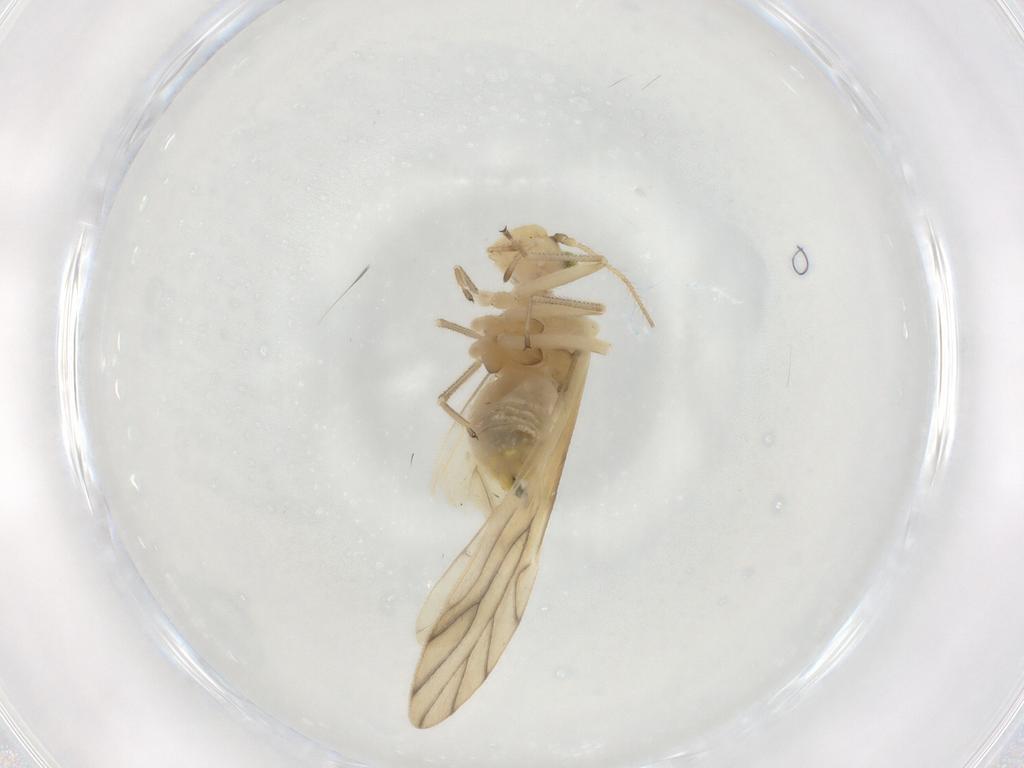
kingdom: Animalia
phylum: Arthropoda
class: Insecta
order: Psocodea
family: Caeciliusidae
